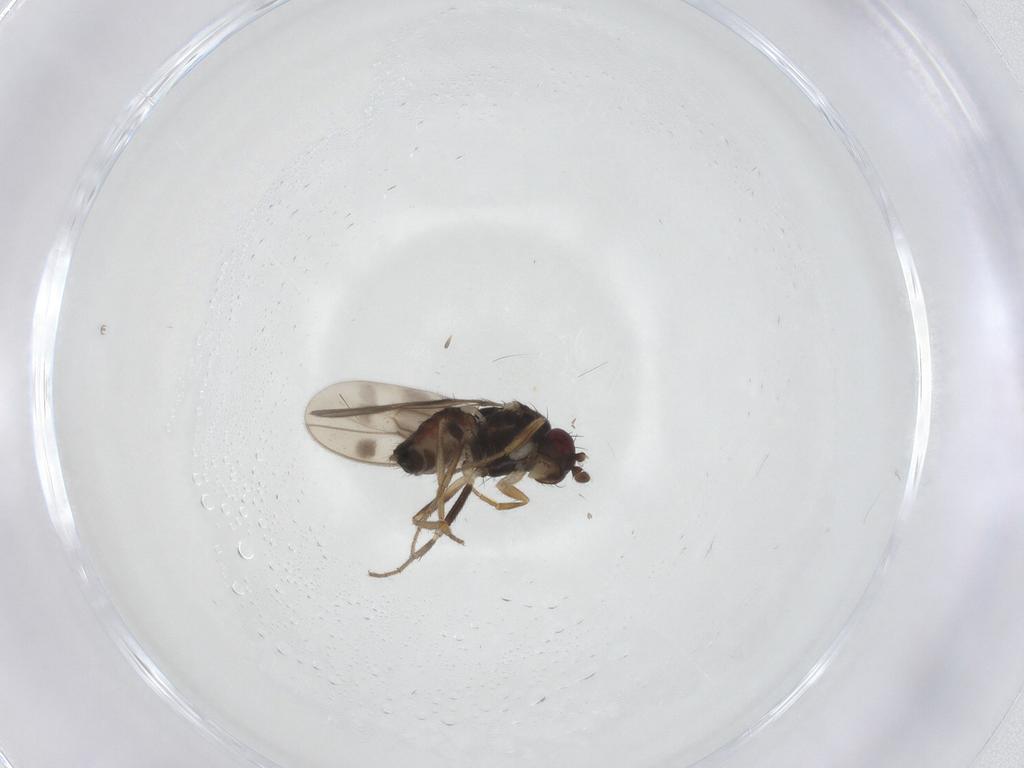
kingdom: Animalia
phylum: Arthropoda
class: Insecta
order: Diptera
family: Sphaeroceridae
